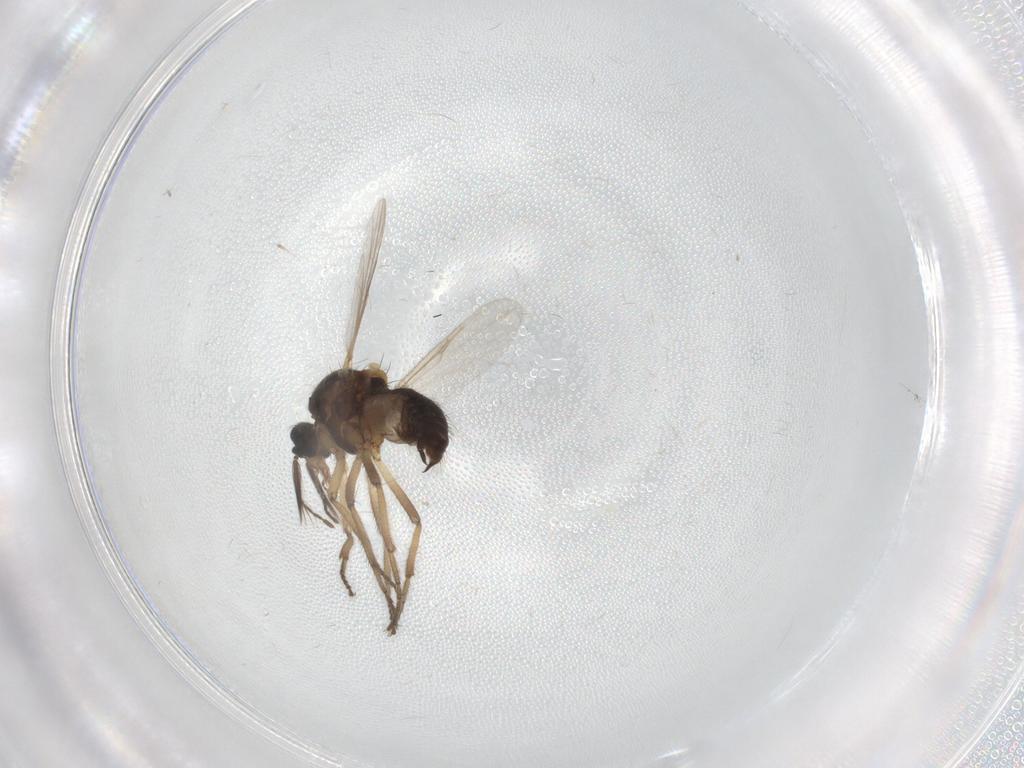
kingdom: Animalia
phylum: Arthropoda
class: Insecta
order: Diptera
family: Ceratopogonidae
